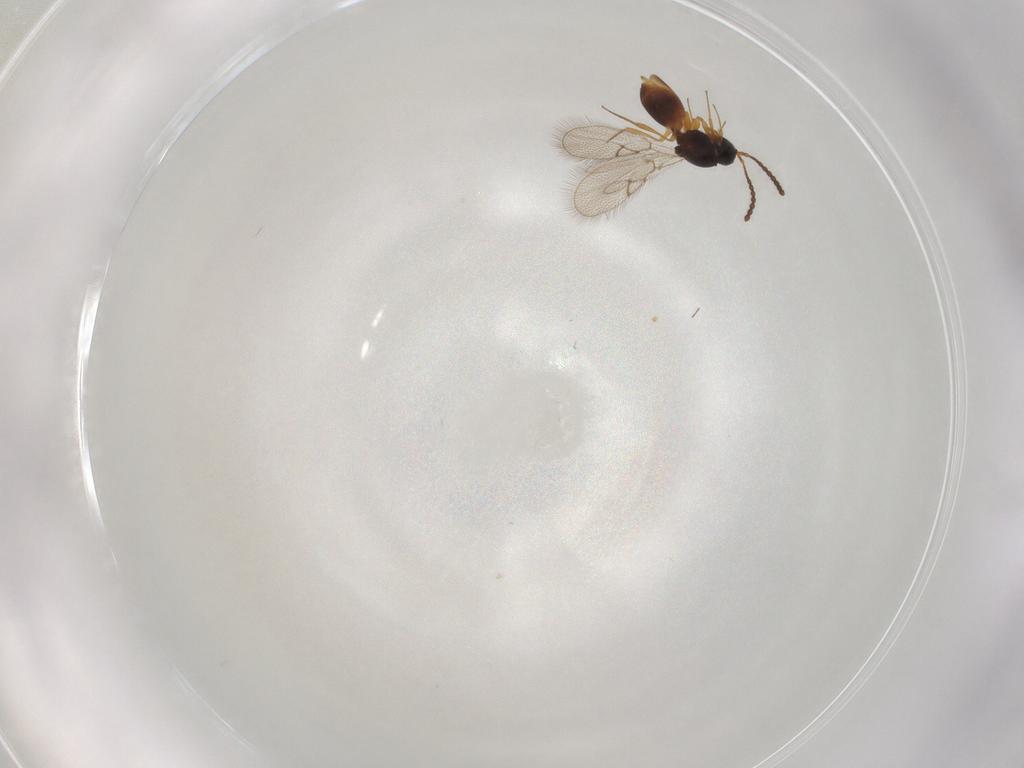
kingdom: Animalia
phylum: Arthropoda
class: Insecta
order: Hymenoptera
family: Figitidae
